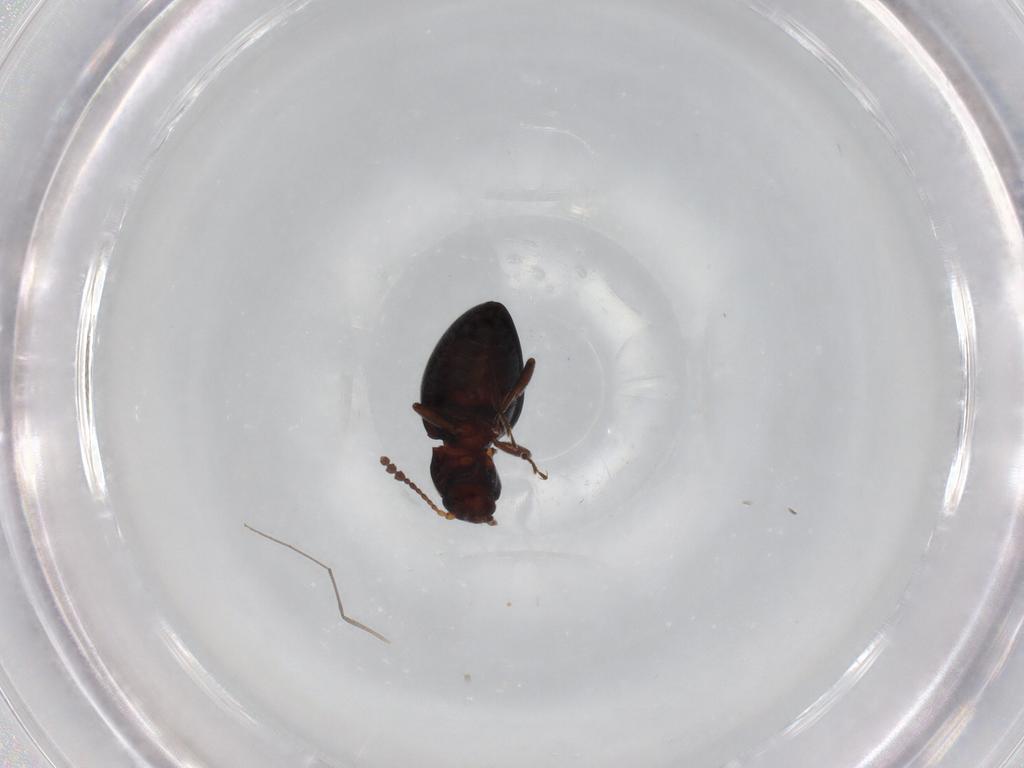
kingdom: Animalia
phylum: Arthropoda
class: Insecta
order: Coleoptera
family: Erotylidae
